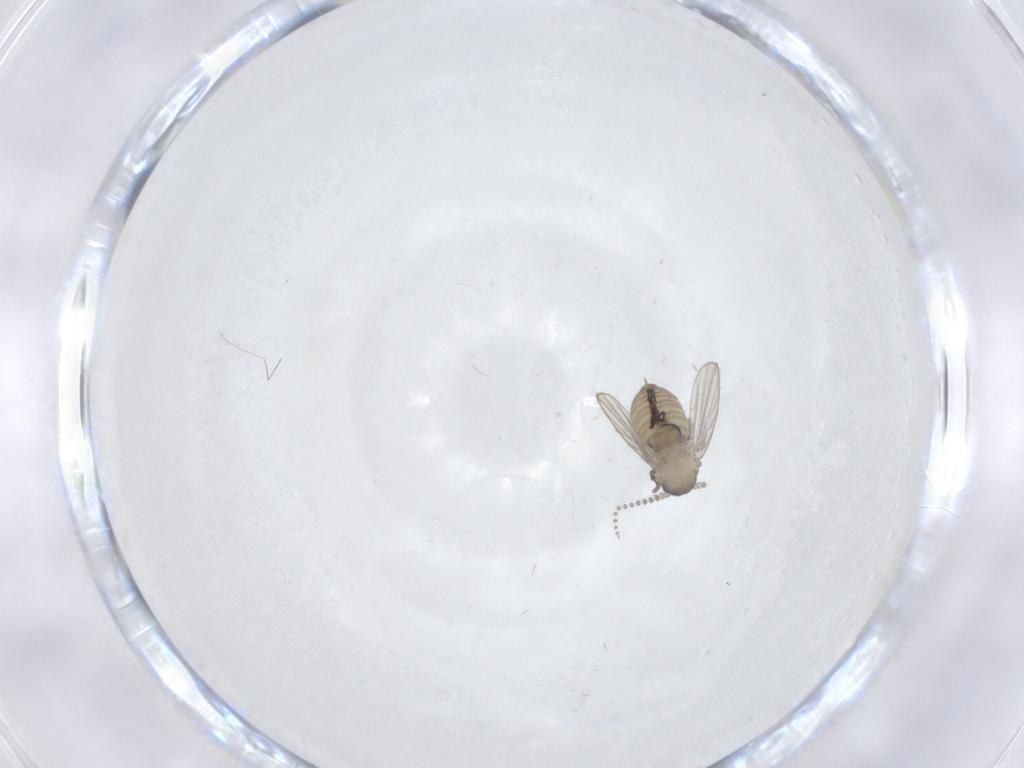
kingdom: Animalia
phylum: Arthropoda
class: Insecta
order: Diptera
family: Psychodidae
